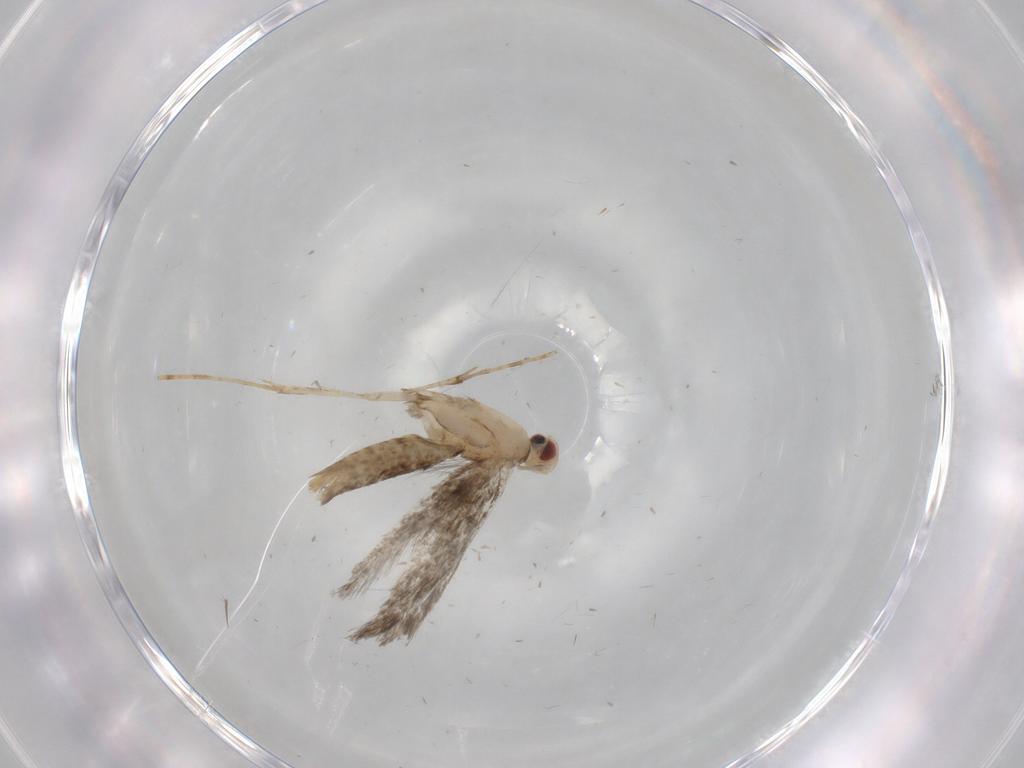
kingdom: Animalia
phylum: Arthropoda
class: Insecta
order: Lepidoptera
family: Gracillariidae
